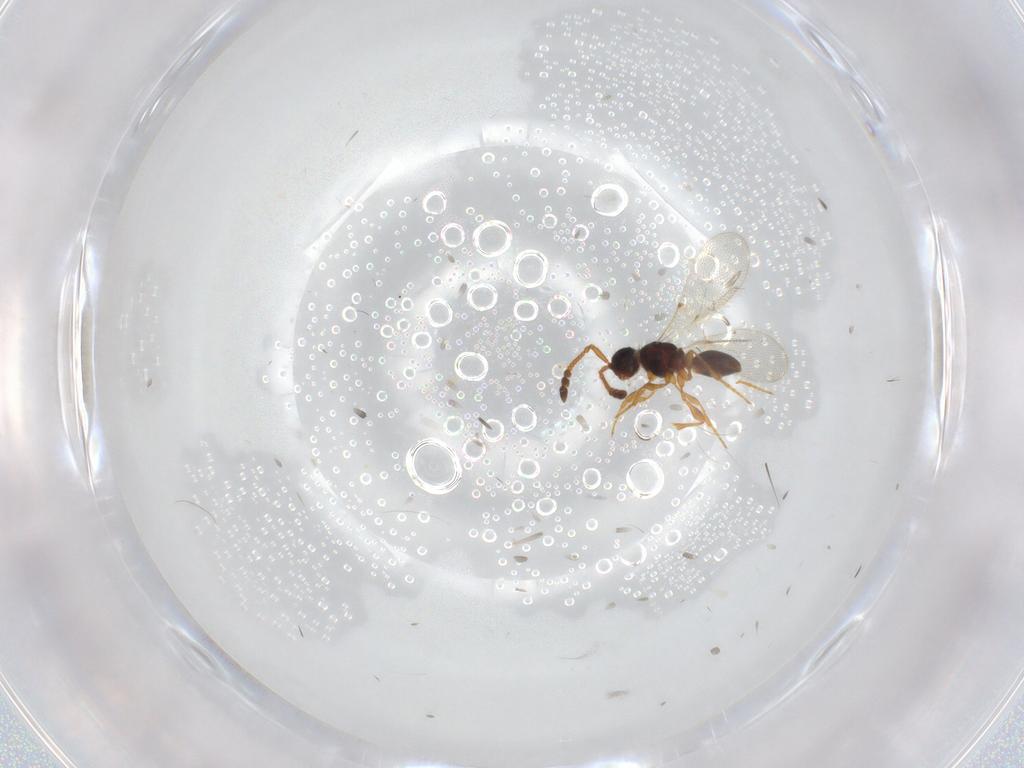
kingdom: Animalia
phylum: Arthropoda
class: Insecta
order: Hymenoptera
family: Diapriidae
